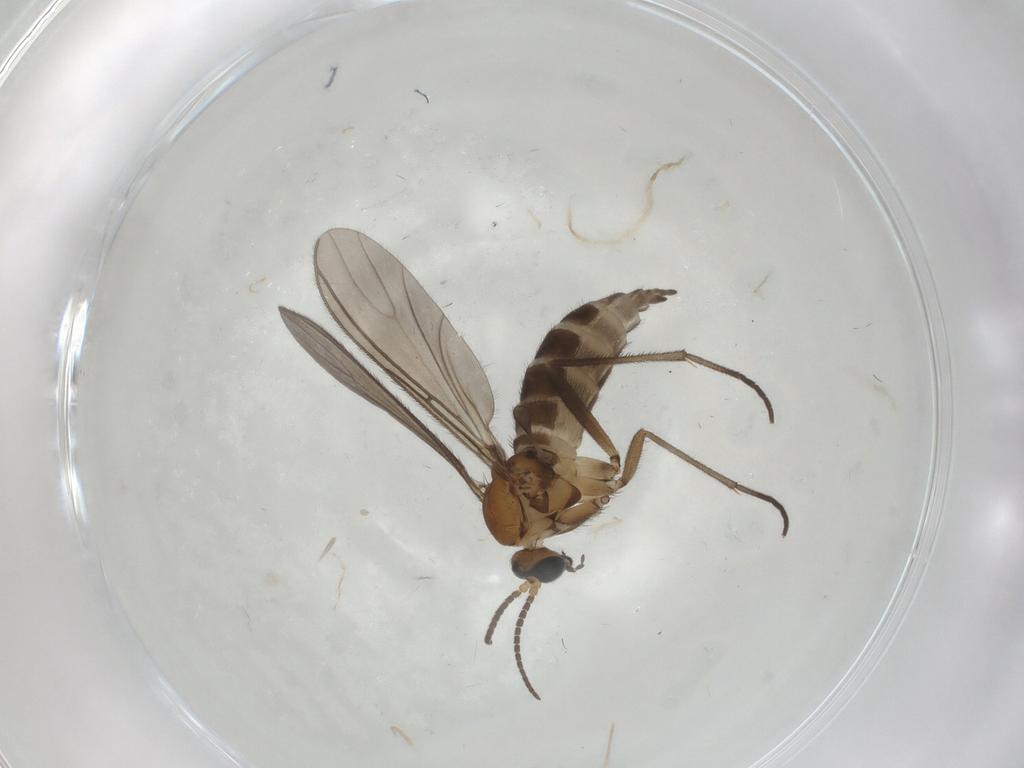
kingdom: Animalia
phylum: Arthropoda
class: Insecta
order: Diptera
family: Sciaridae
